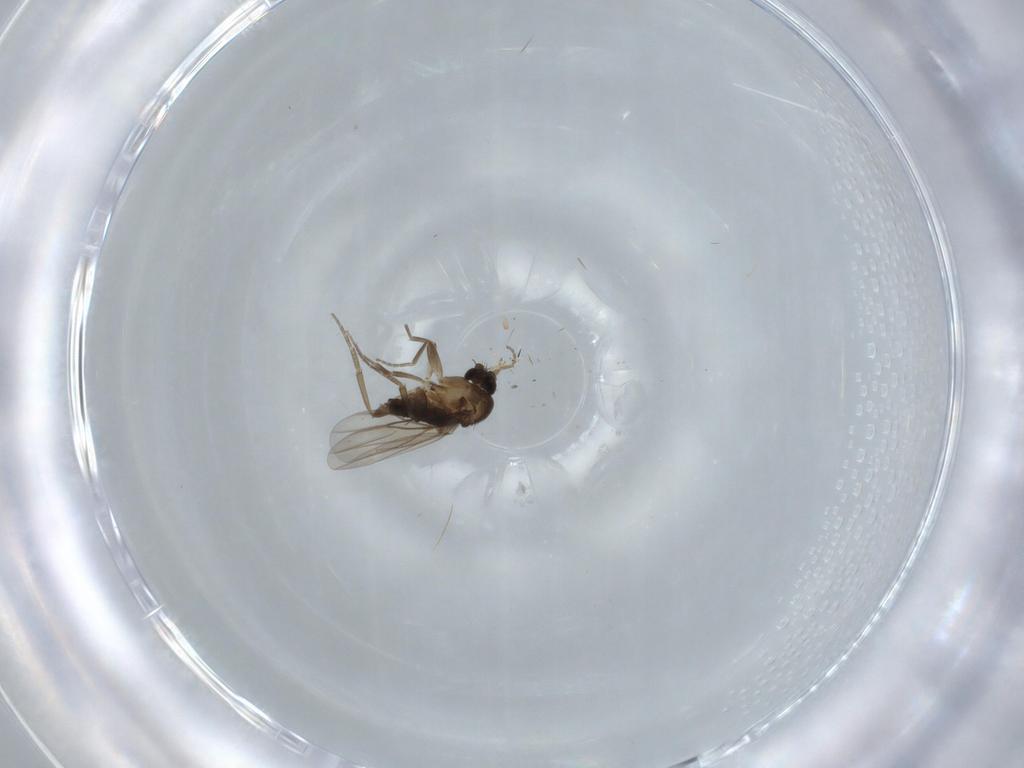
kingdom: Animalia
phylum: Arthropoda
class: Insecta
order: Diptera
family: Phoridae
